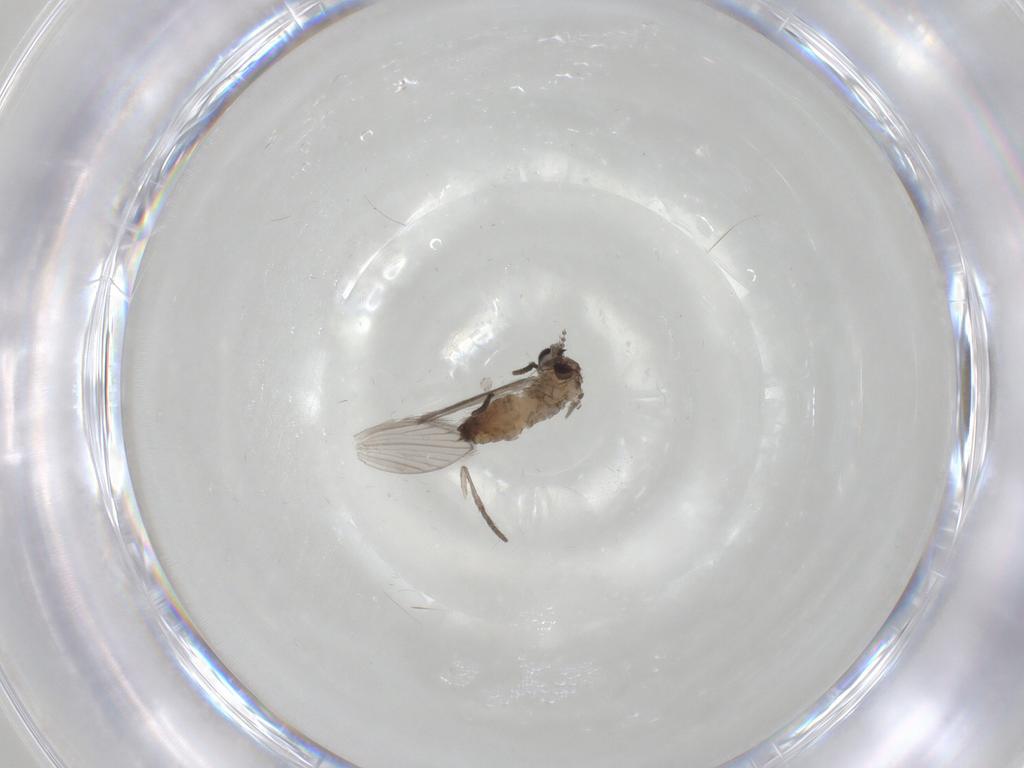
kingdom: Animalia
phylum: Arthropoda
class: Insecta
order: Diptera
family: Psychodidae
